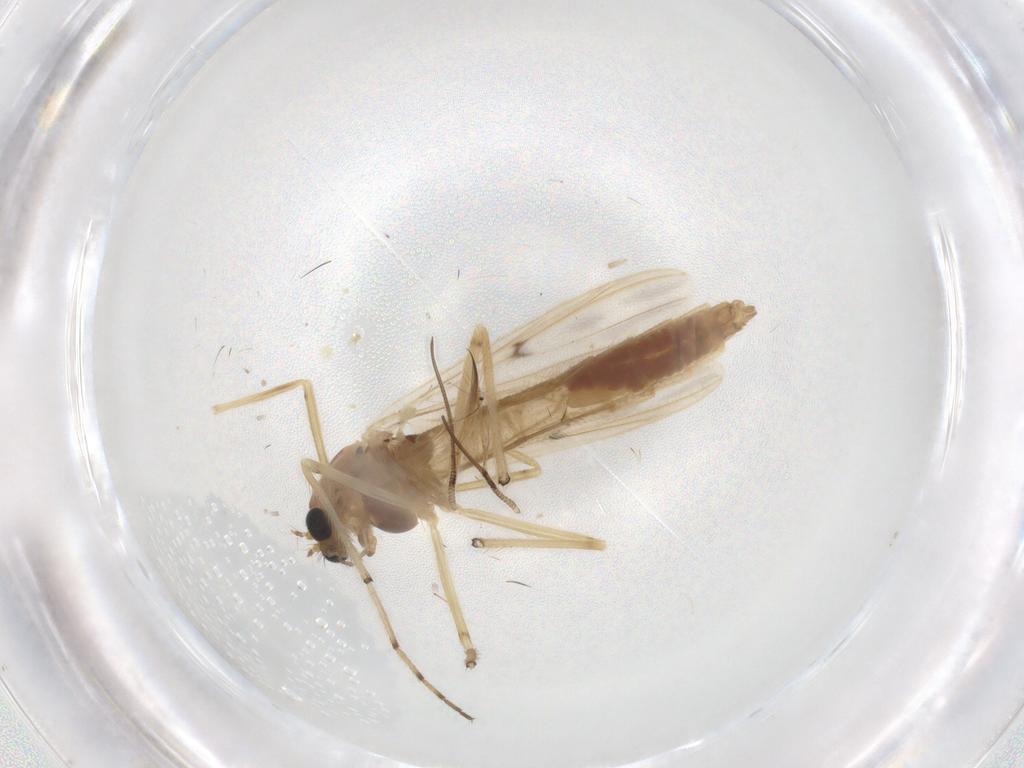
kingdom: Animalia
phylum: Arthropoda
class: Insecta
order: Diptera
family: Chironomidae
